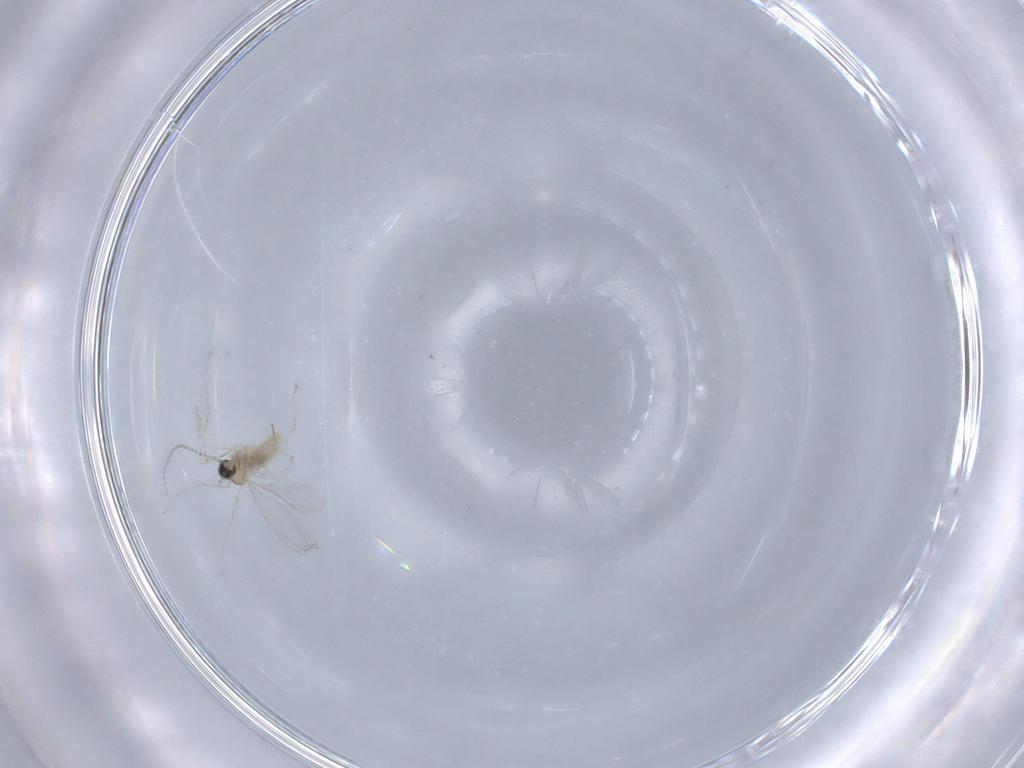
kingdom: Animalia
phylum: Arthropoda
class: Insecta
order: Diptera
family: Cecidomyiidae
